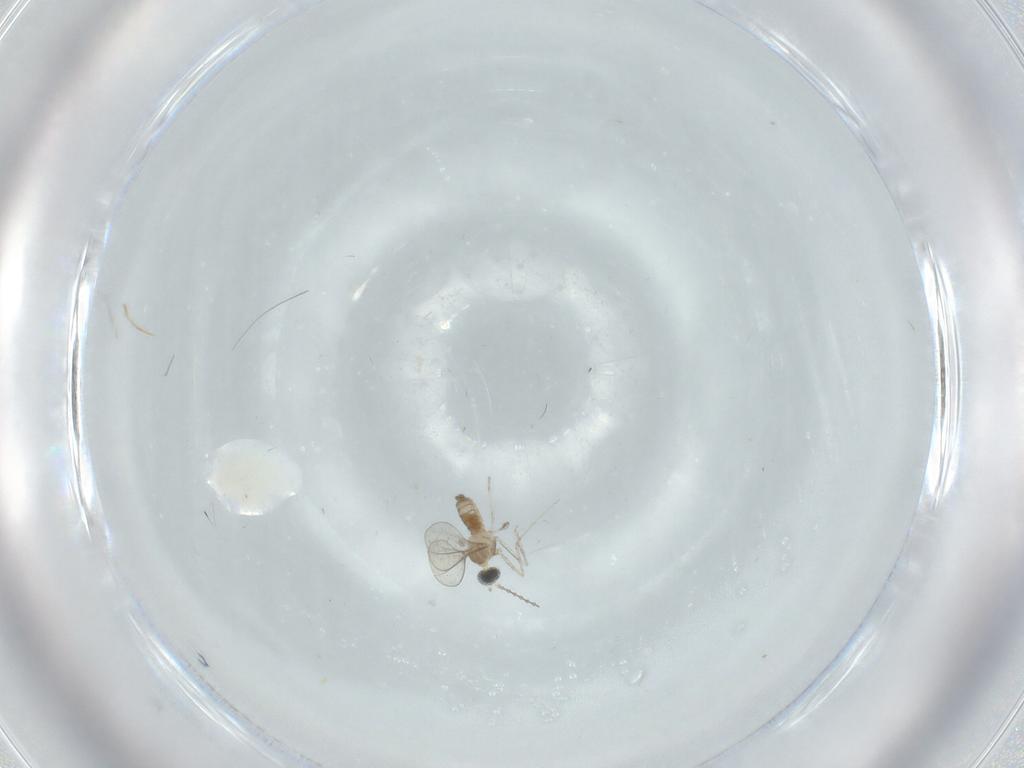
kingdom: Animalia
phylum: Arthropoda
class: Insecta
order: Diptera
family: Cecidomyiidae
